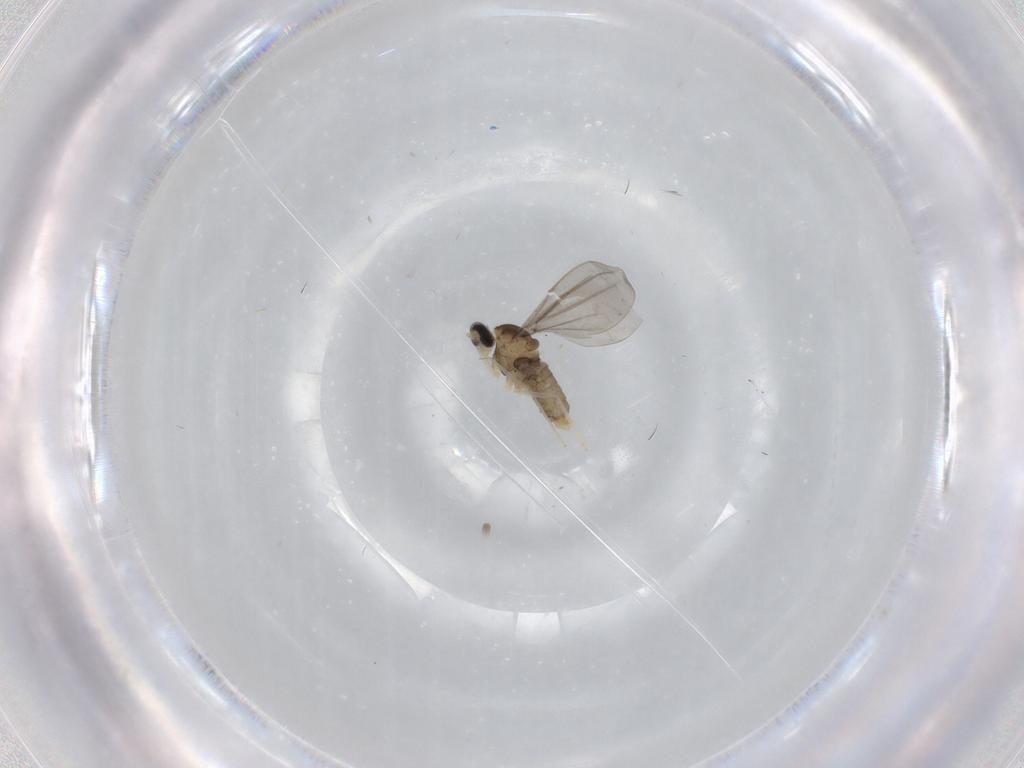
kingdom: Animalia
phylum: Arthropoda
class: Insecta
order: Diptera
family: Cecidomyiidae
